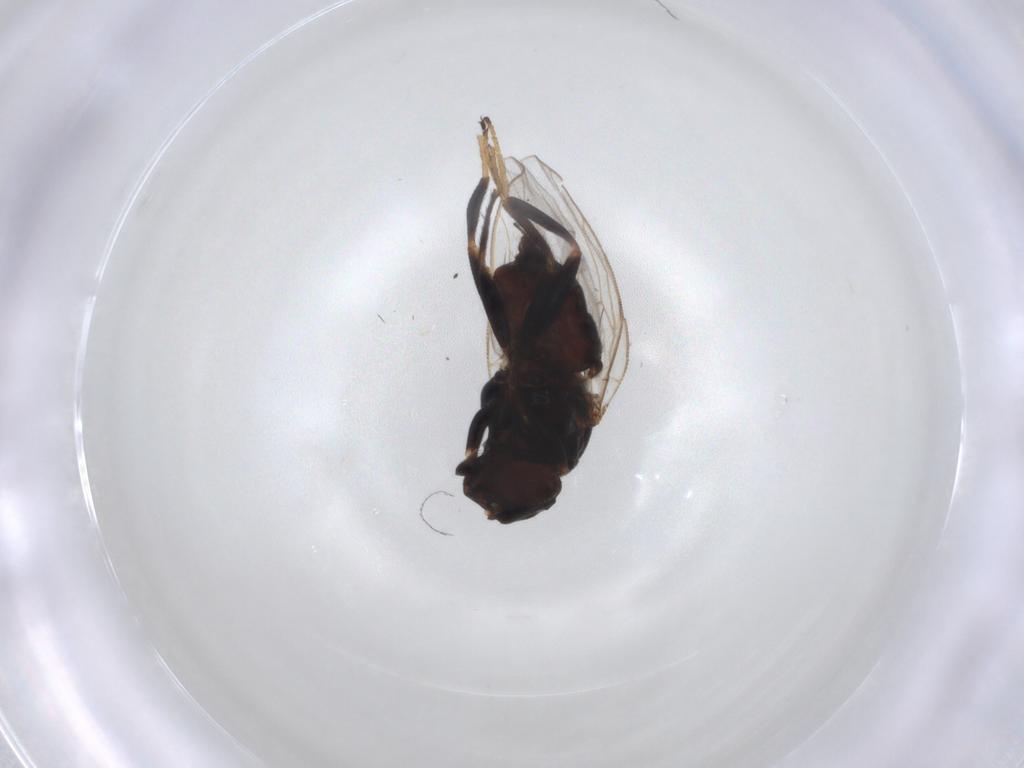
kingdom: Animalia
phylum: Arthropoda
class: Insecta
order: Diptera
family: Chloropidae
